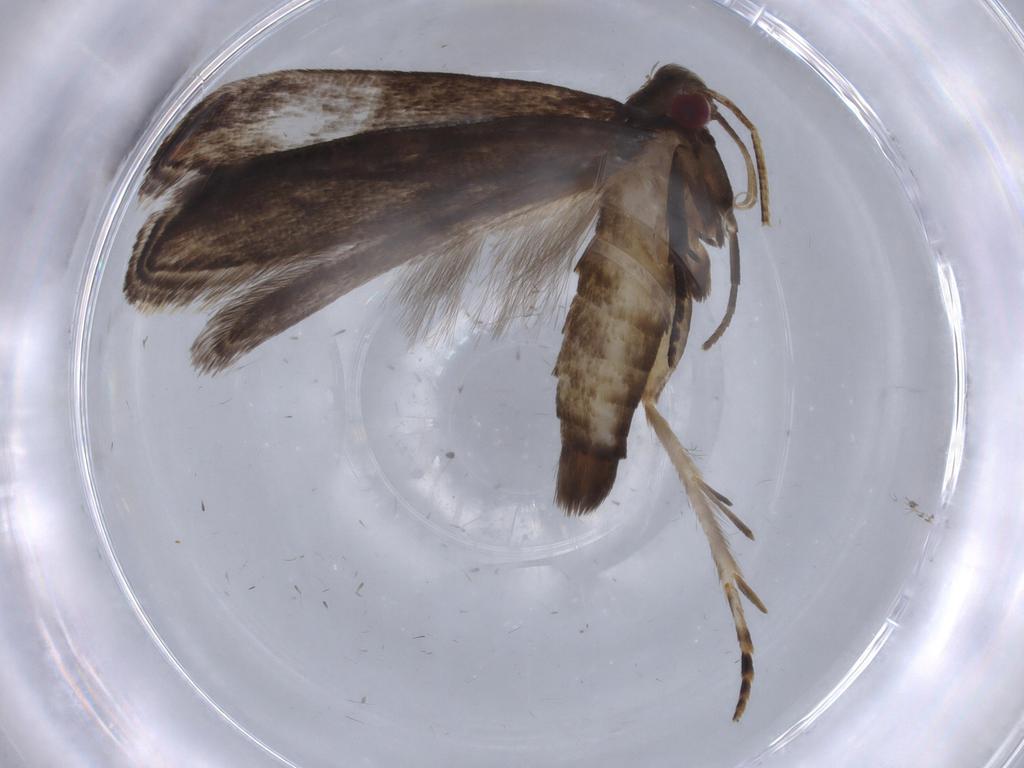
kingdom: Animalia
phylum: Arthropoda
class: Insecta
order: Lepidoptera
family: Gelechiidae
